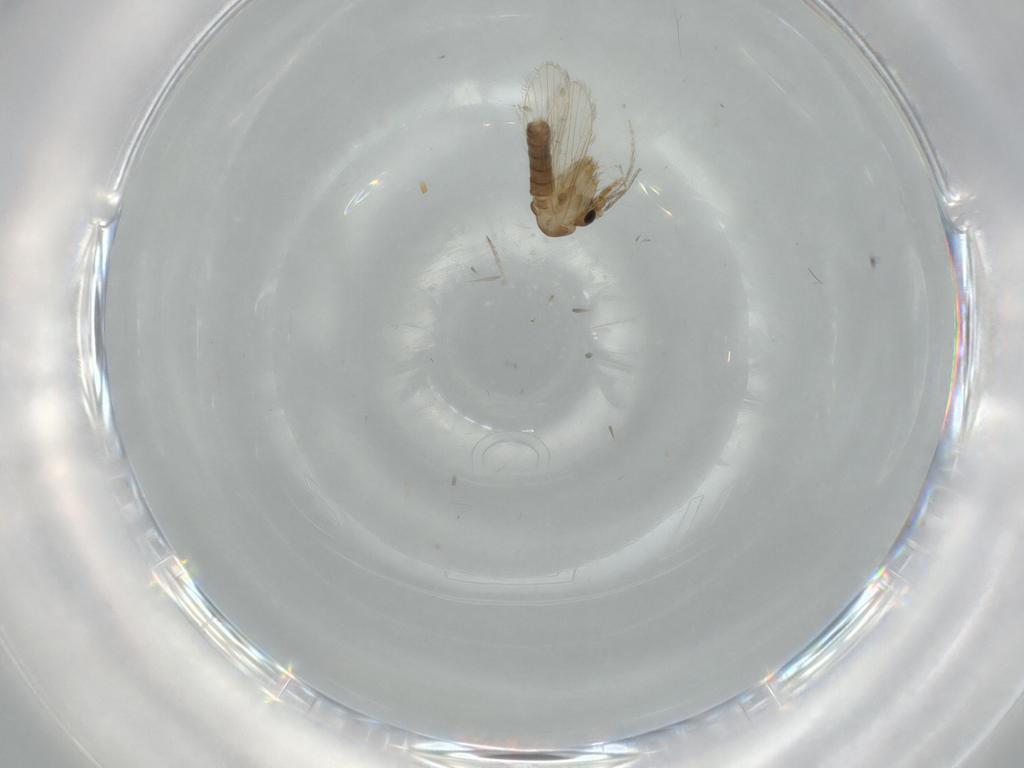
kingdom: Animalia
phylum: Arthropoda
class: Insecta
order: Diptera
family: Psychodidae
